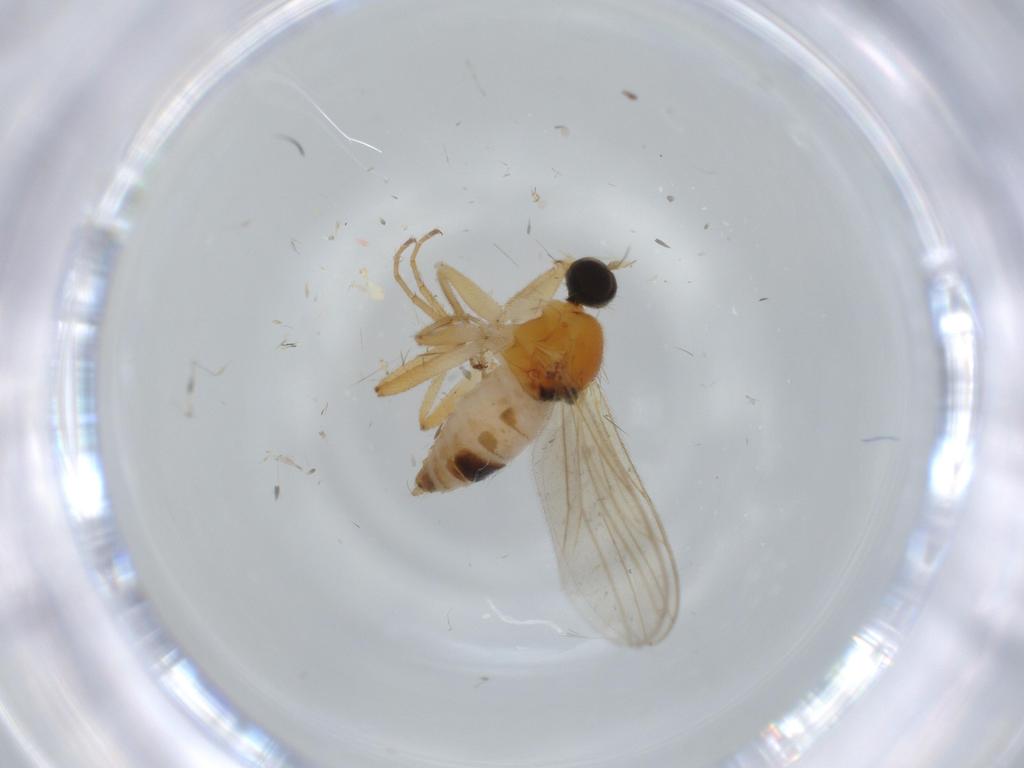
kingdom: Animalia
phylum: Arthropoda
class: Insecta
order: Diptera
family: Hybotidae
